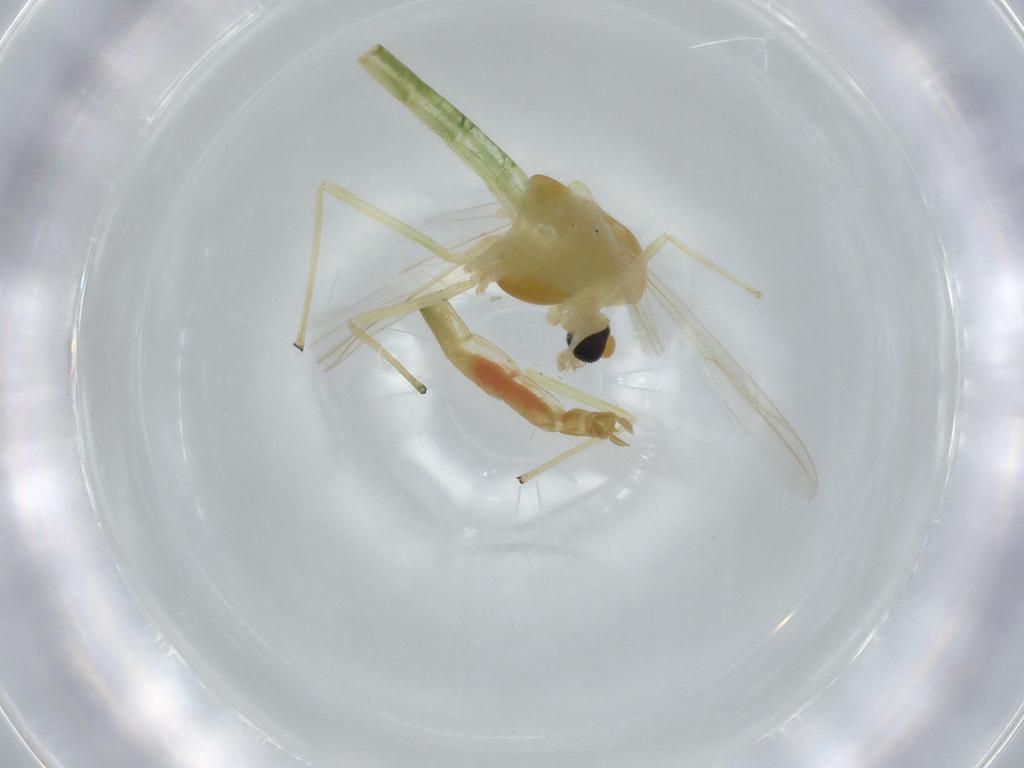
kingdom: Animalia
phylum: Arthropoda
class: Insecta
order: Diptera
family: Chironomidae
